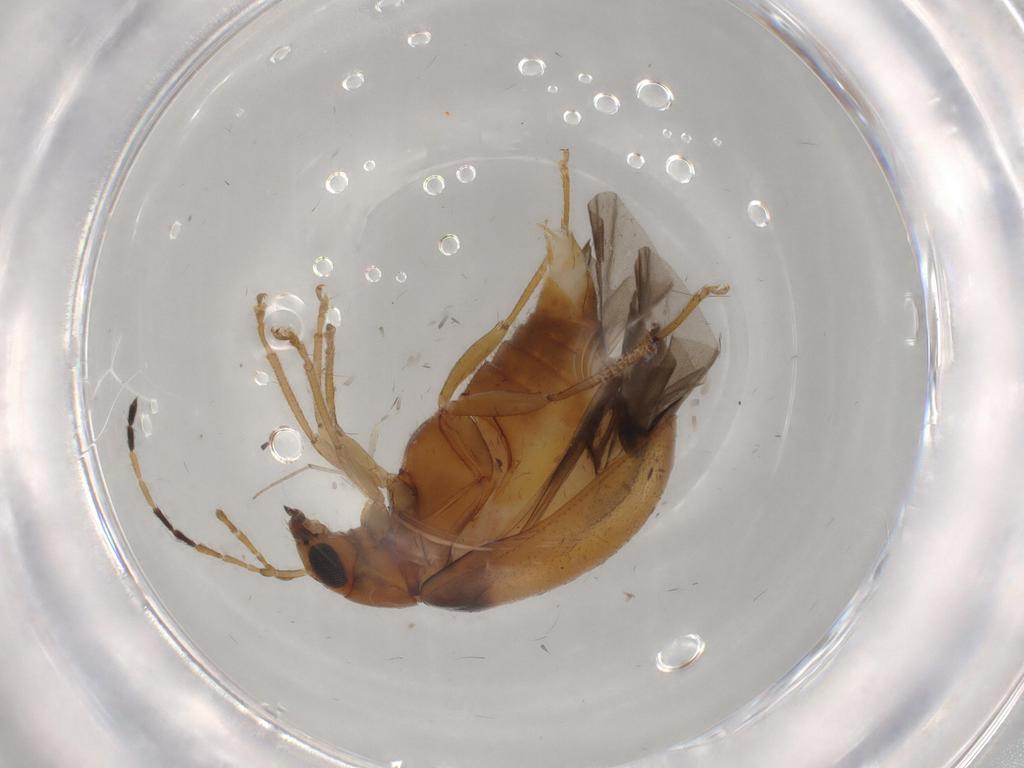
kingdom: Animalia
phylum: Arthropoda
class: Insecta
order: Coleoptera
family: Chrysomelidae
